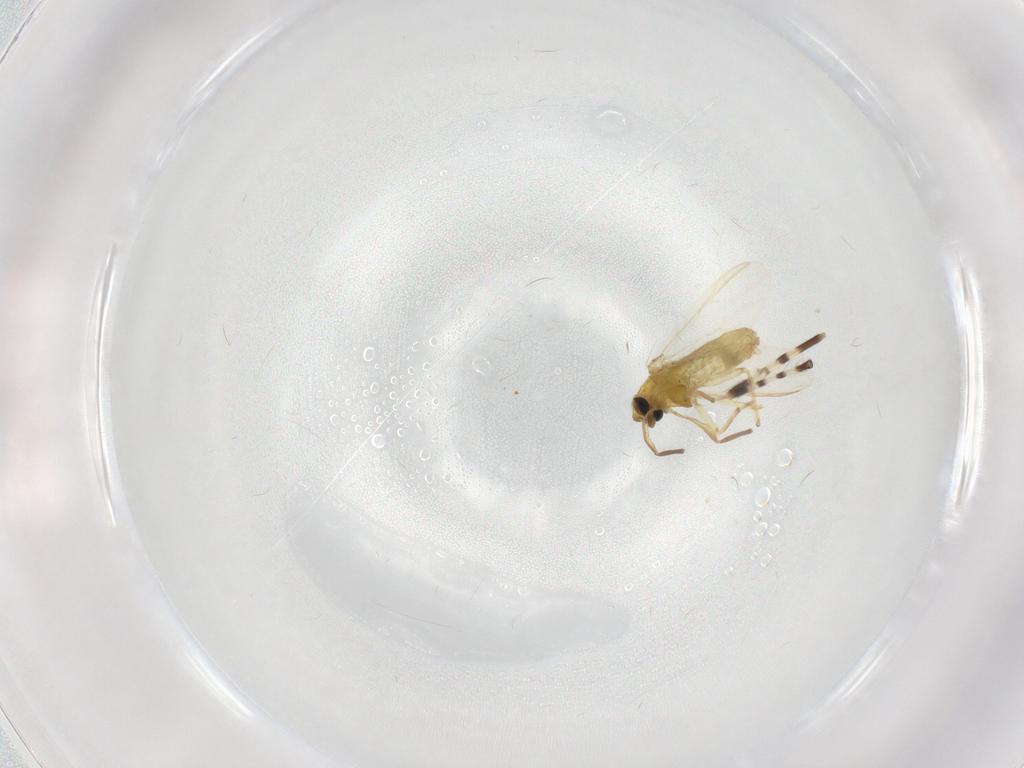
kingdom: Animalia
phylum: Arthropoda
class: Insecta
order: Diptera
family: Chironomidae
